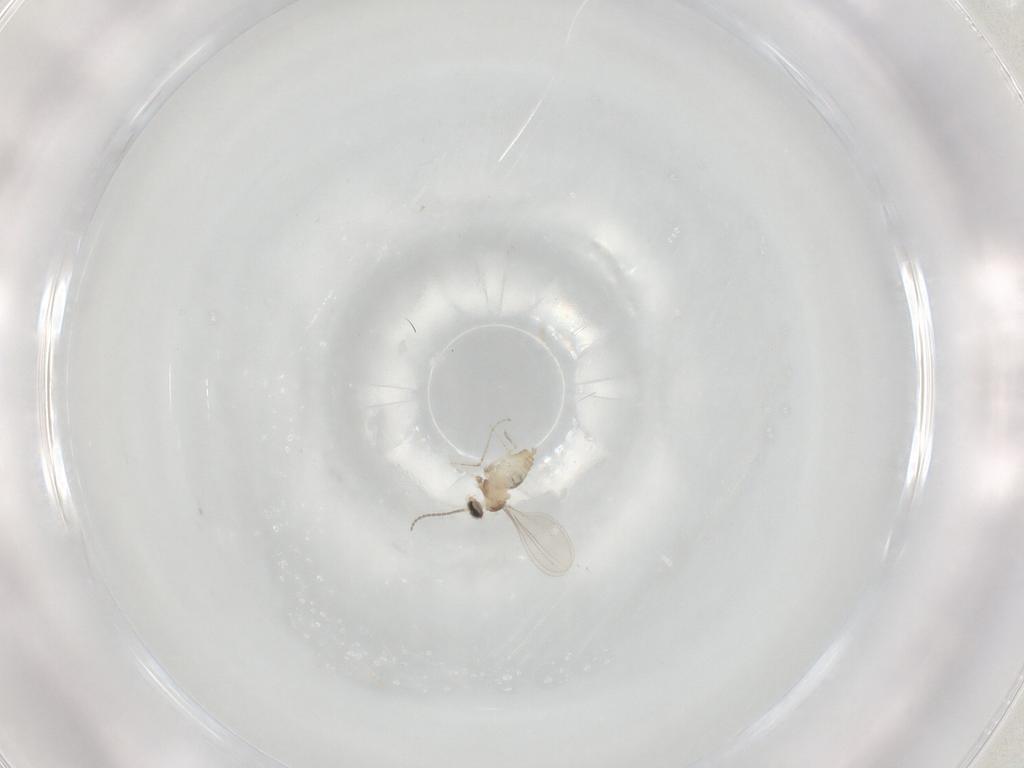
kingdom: Animalia
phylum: Arthropoda
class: Insecta
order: Diptera
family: Cecidomyiidae
